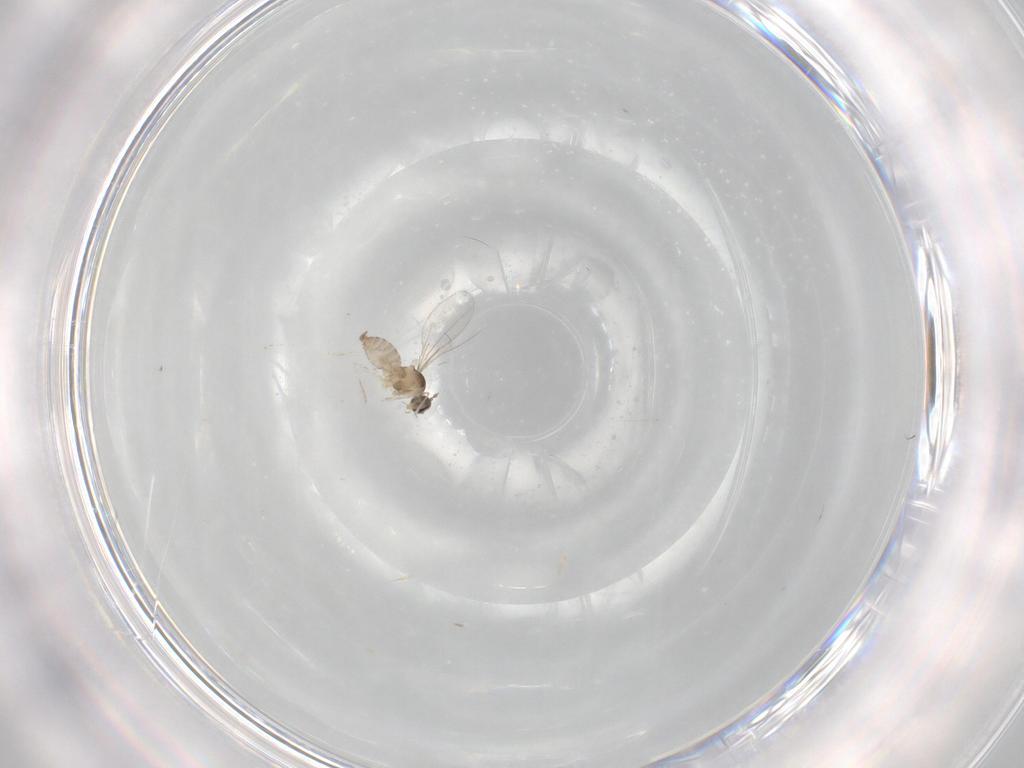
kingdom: Animalia
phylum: Arthropoda
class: Insecta
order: Diptera
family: Cecidomyiidae
